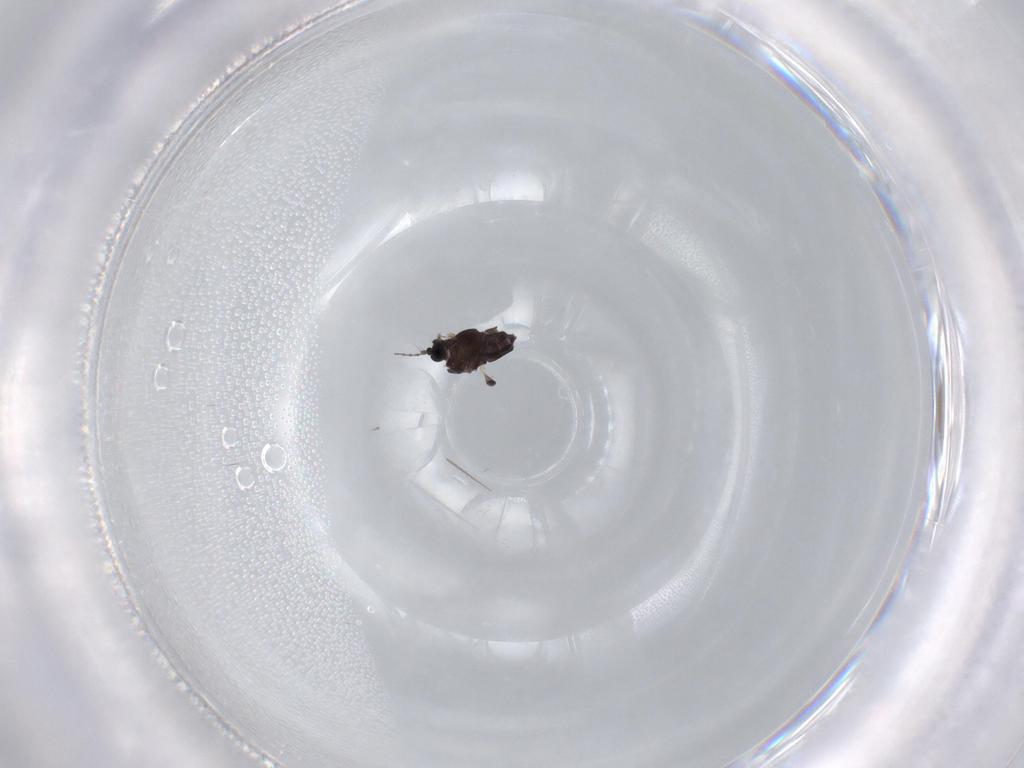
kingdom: Animalia
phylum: Arthropoda
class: Insecta
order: Diptera
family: Chironomidae
